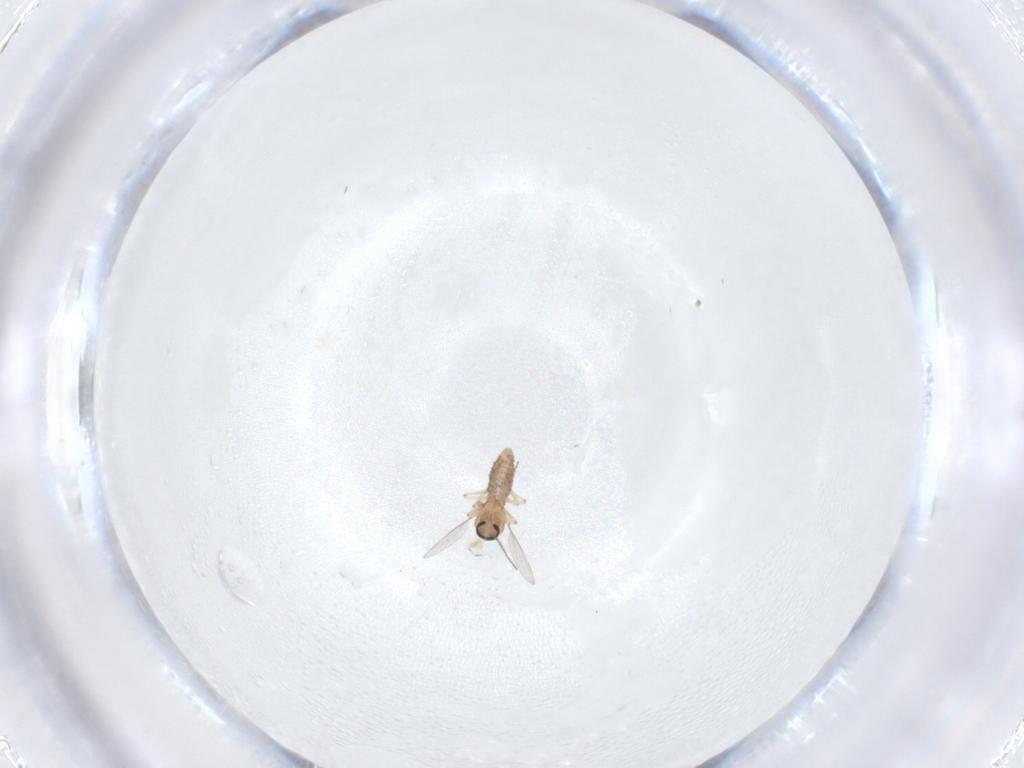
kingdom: Animalia
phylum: Arthropoda
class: Insecta
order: Diptera
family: Ceratopogonidae
